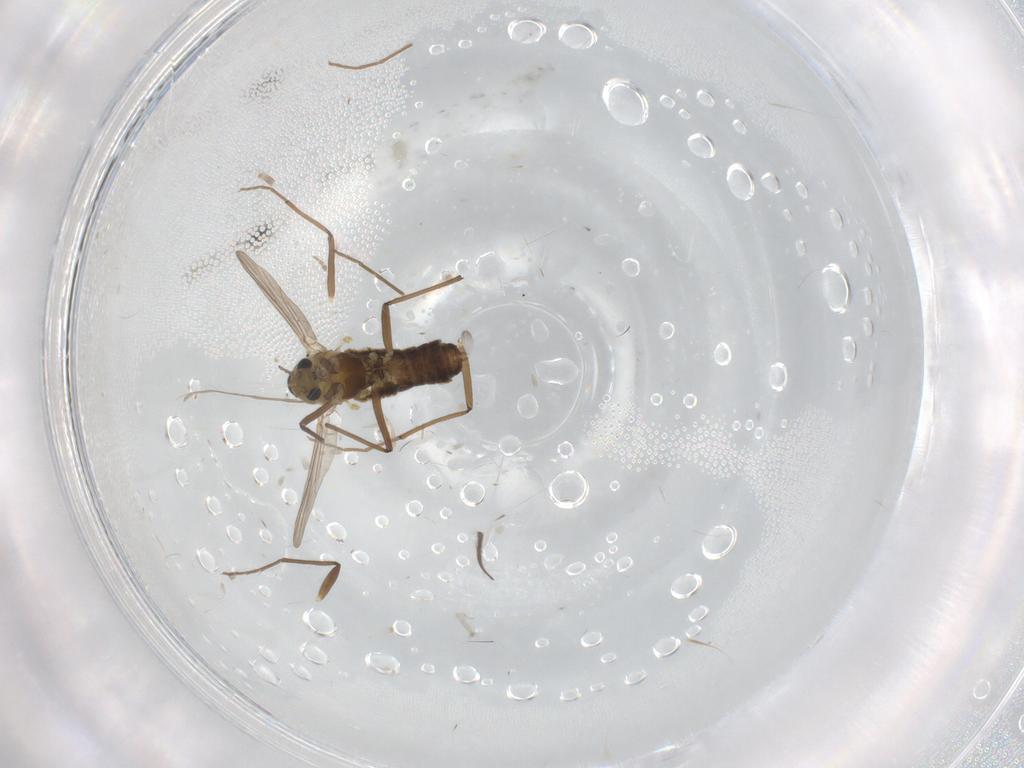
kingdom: Animalia
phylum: Arthropoda
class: Insecta
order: Diptera
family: Chironomidae
